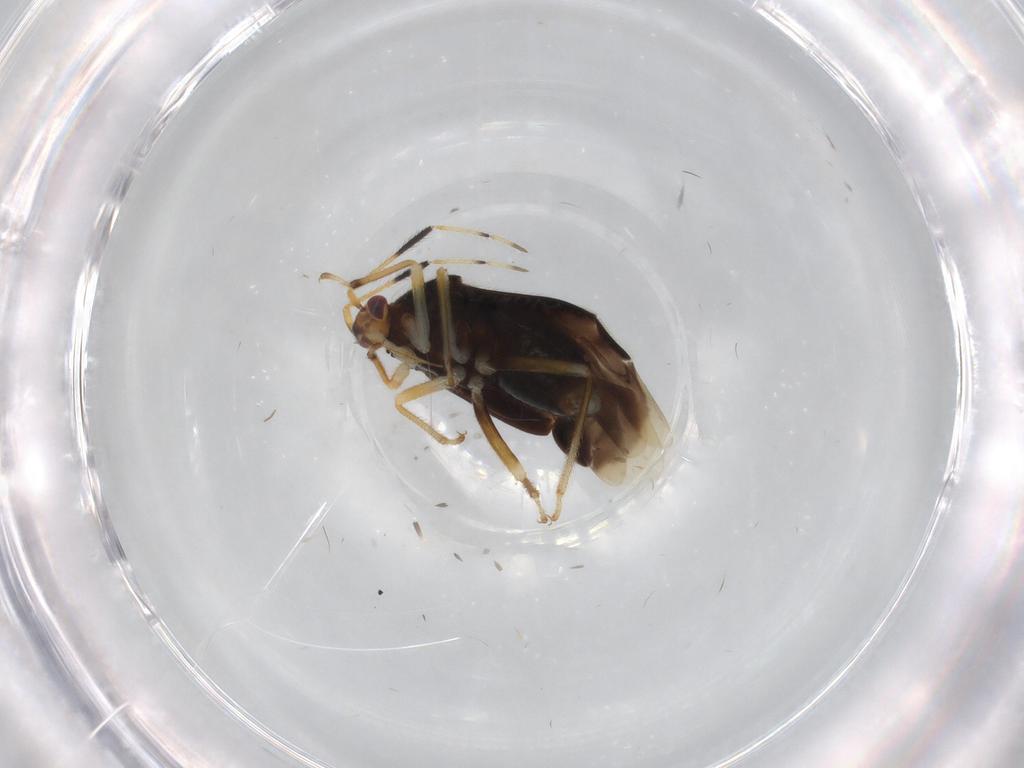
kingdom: Animalia
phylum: Arthropoda
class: Insecta
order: Hemiptera
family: Miridae
